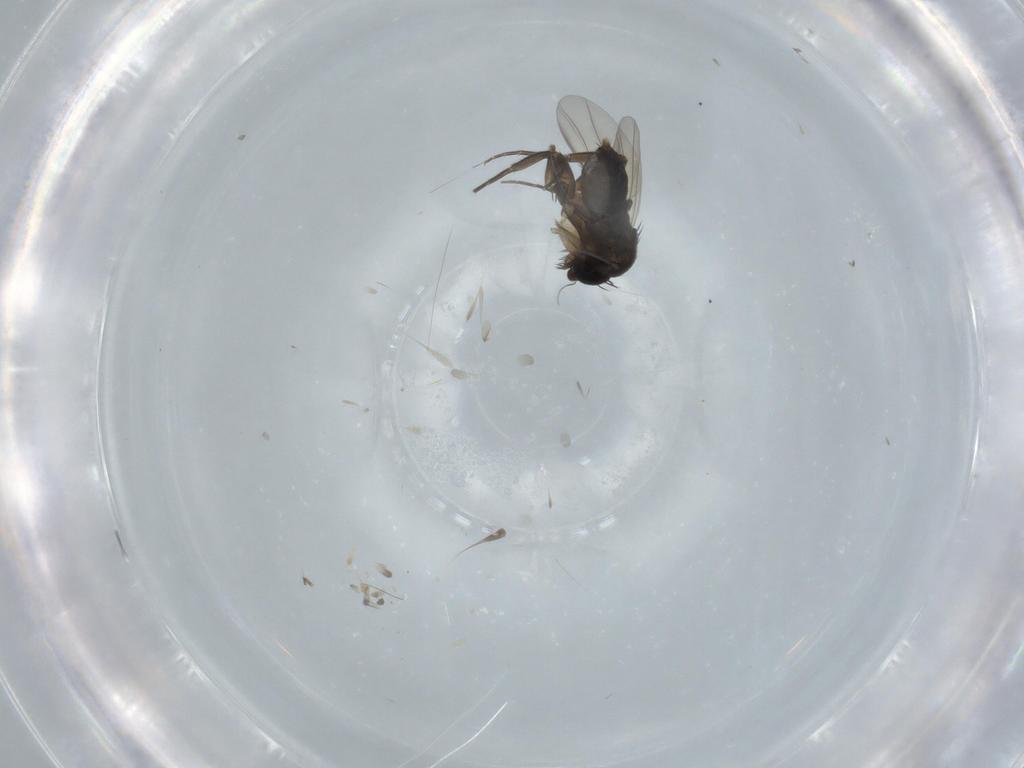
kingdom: Animalia
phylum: Arthropoda
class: Insecta
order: Diptera
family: Phoridae
